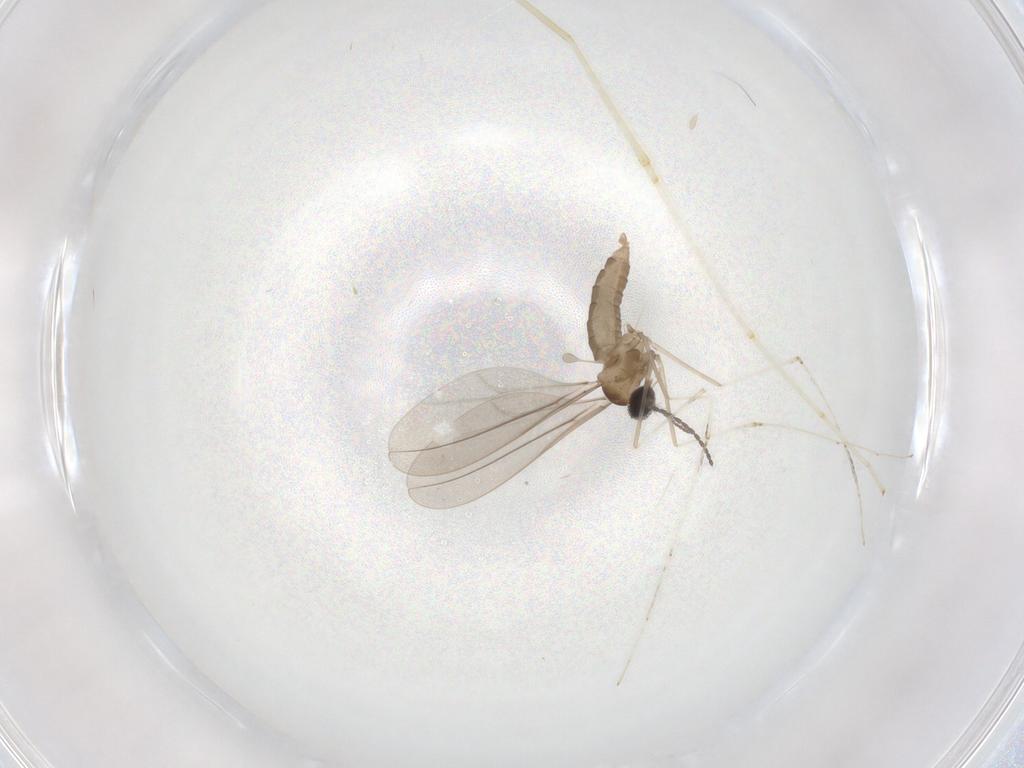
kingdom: Animalia
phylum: Arthropoda
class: Insecta
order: Diptera
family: Cecidomyiidae
